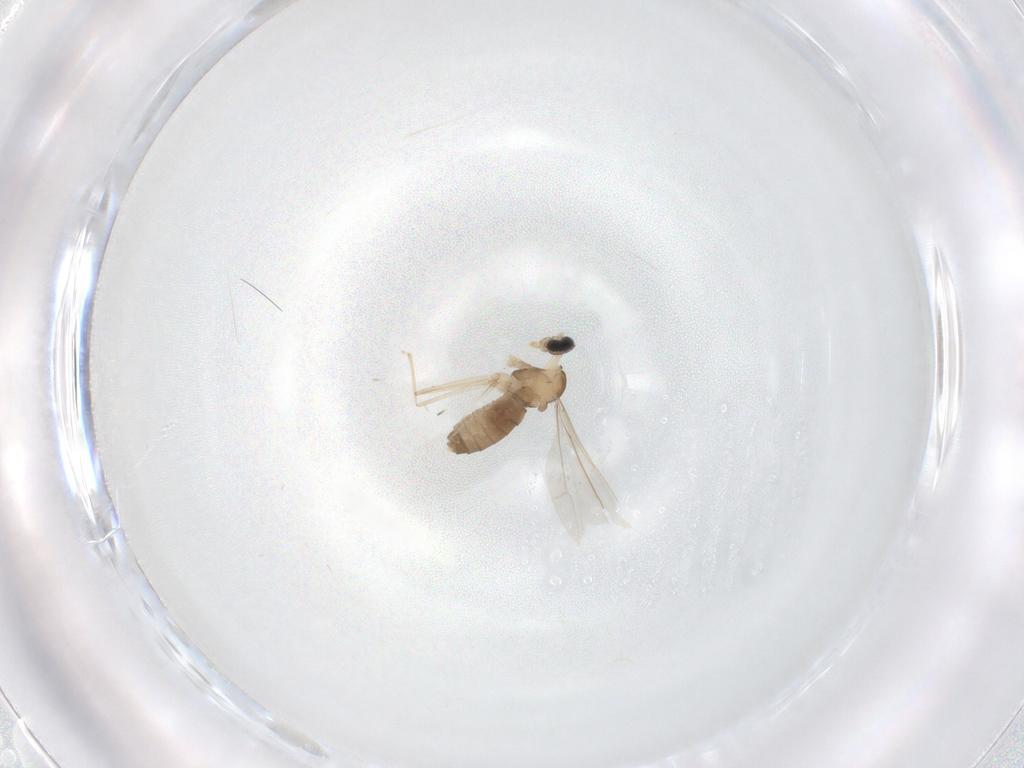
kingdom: Animalia
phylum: Arthropoda
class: Insecta
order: Diptera
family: Cecidomyiidae
